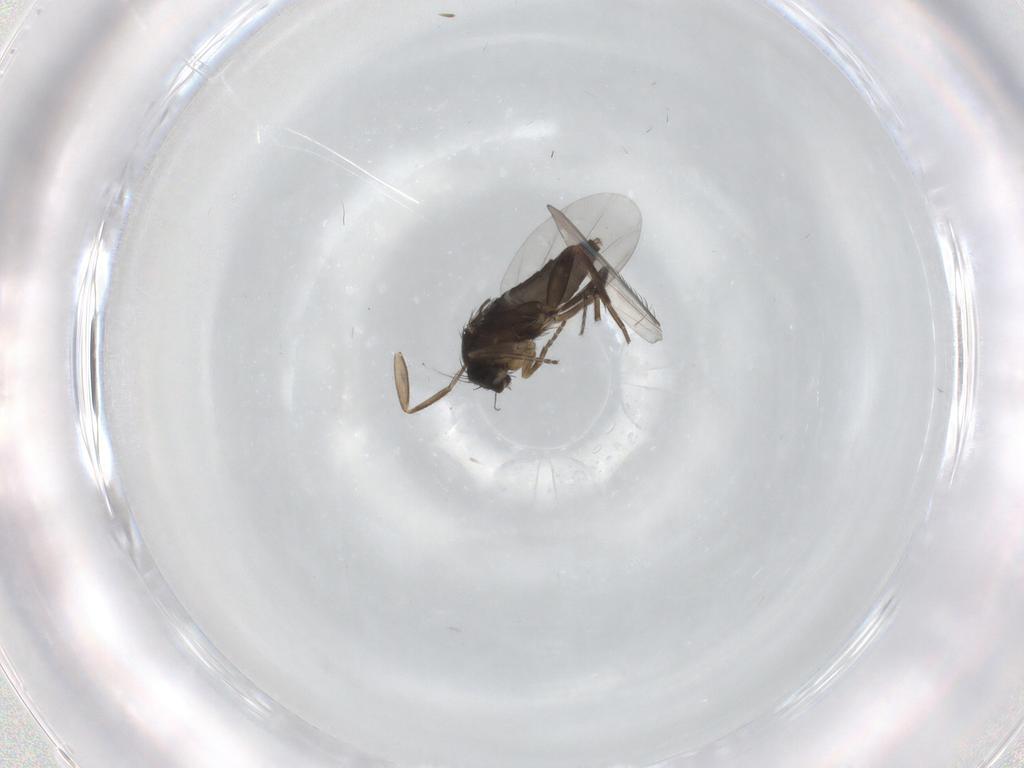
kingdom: Animalia
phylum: Arthropoda
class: Insecta
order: Diptera
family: Phoridae
